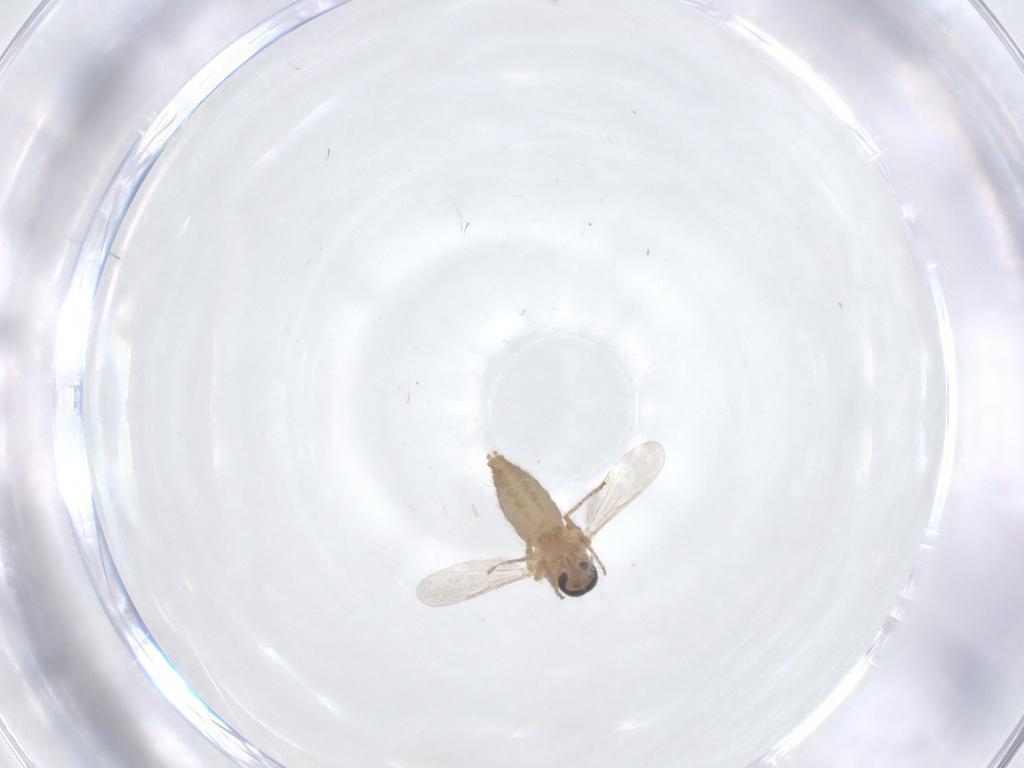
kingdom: Animalia
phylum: Arthropoda
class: Insecta
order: Diptera
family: Ceratopogonidae
